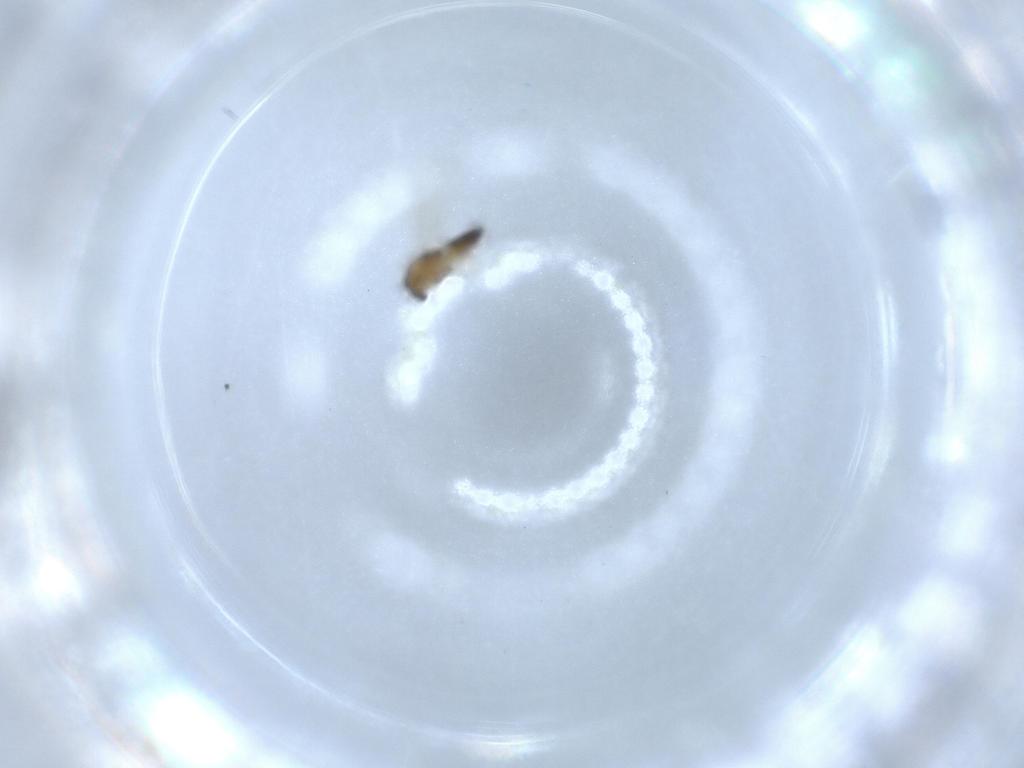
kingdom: Animalia
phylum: Arthropoda
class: Insecta
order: Diptera
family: Chironomidae
